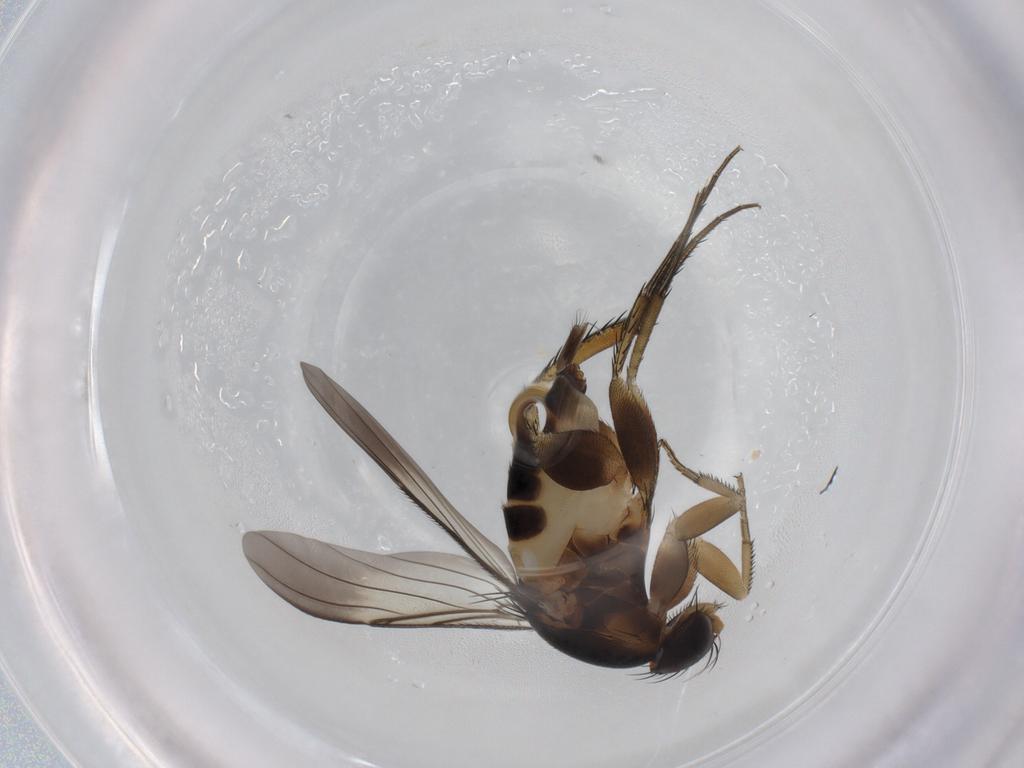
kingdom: Animalia
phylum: Arthropoda
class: Insecta
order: Diptera
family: Phoridae
